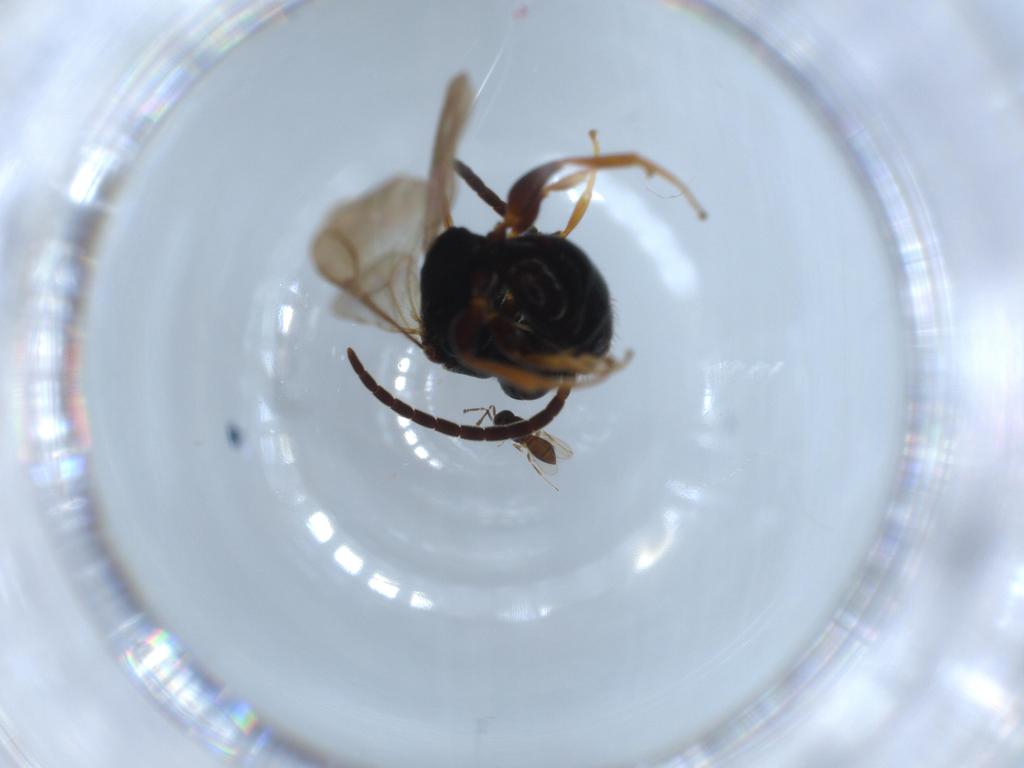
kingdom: Animalia
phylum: Arthropoda
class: Insecta
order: Hymenoptera
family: Bethylidae
